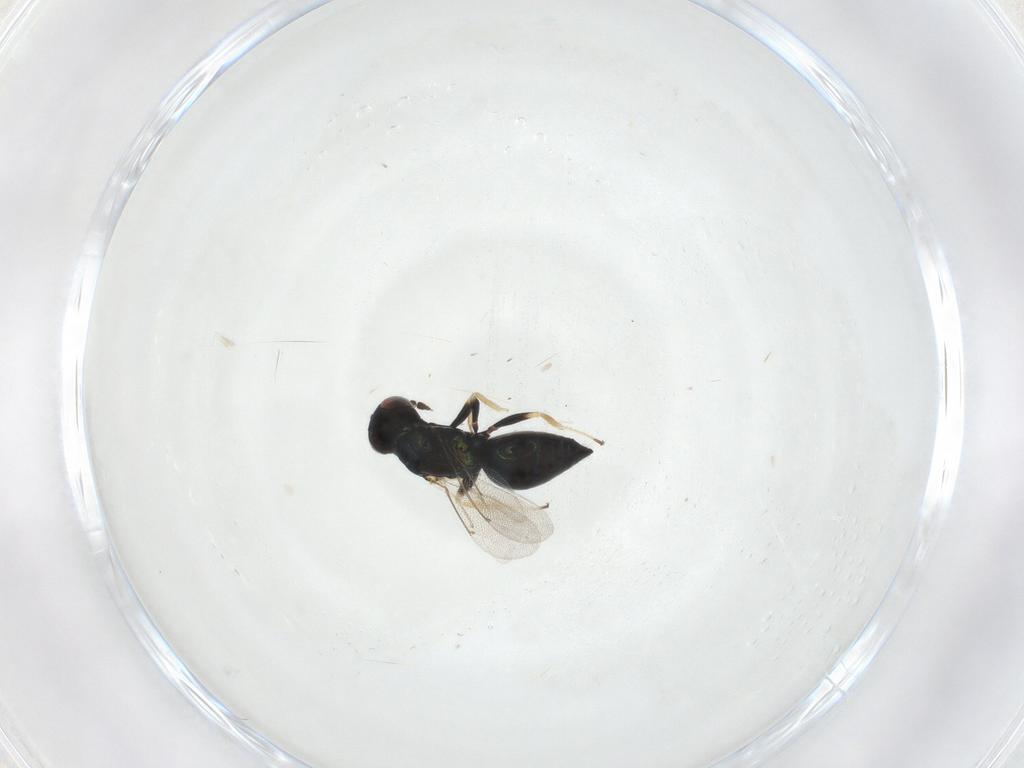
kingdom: Animalia
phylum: Arthropoda
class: Insecta
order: Hymenoptera
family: Eulophidae
